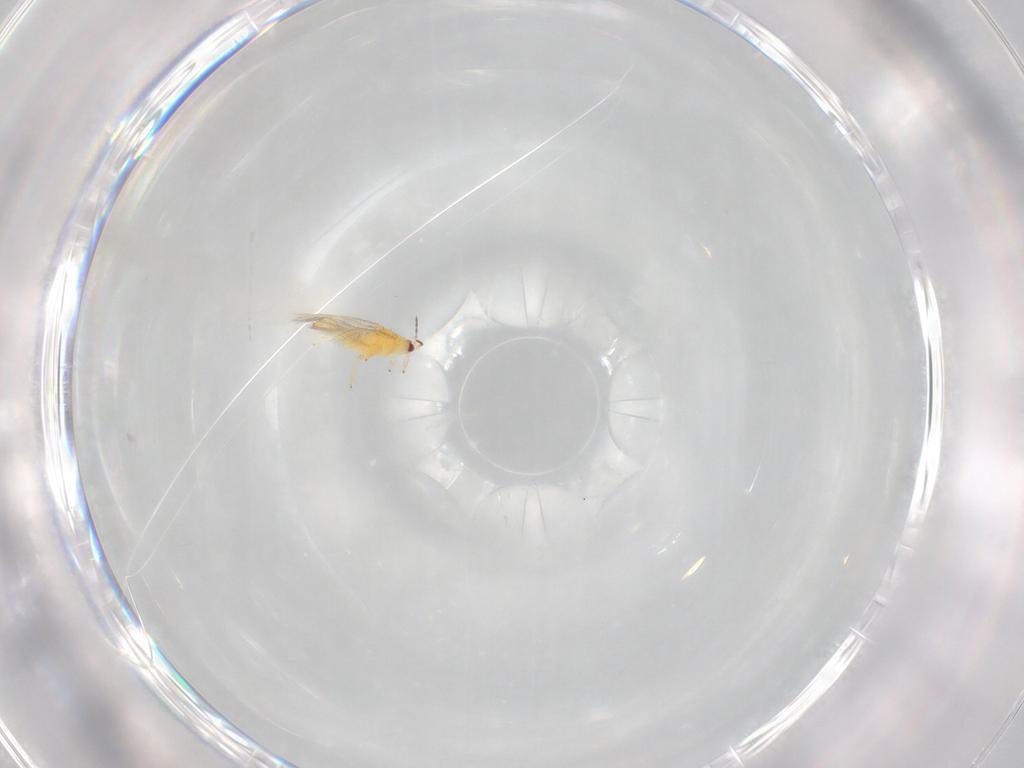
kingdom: Animalia
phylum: Arthropoda
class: Insecta
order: Thysanoptera
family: Thripidae
